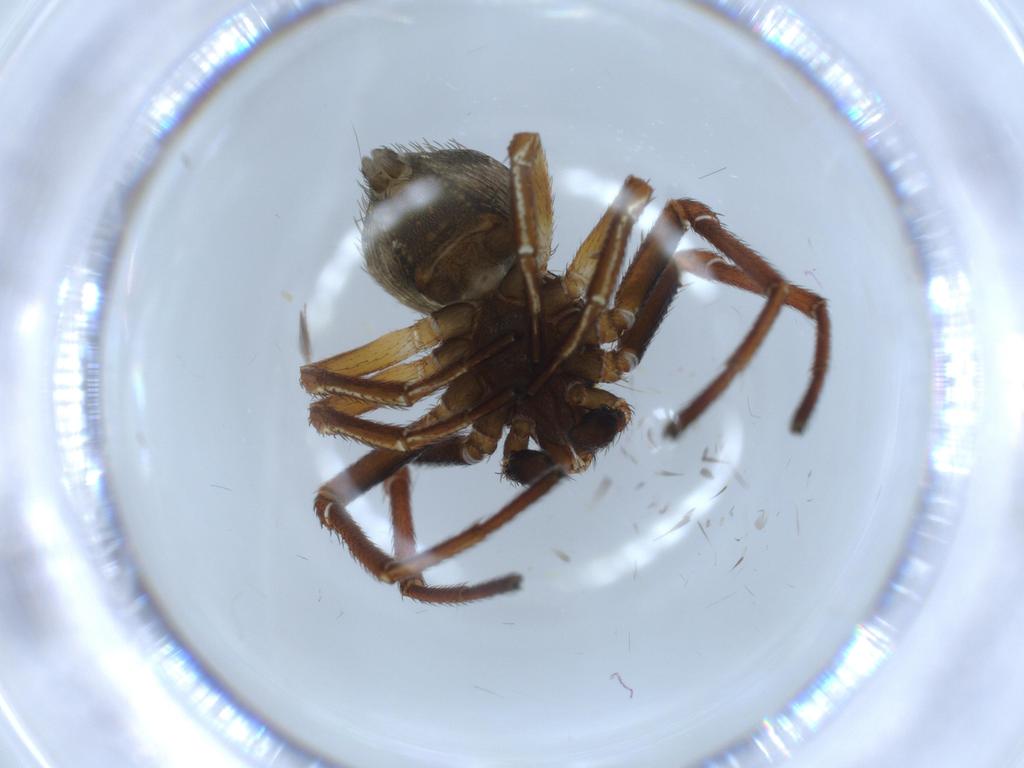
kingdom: Animalia
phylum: Arthropoda
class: Arachnida
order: Araneae
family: Thomisidae
